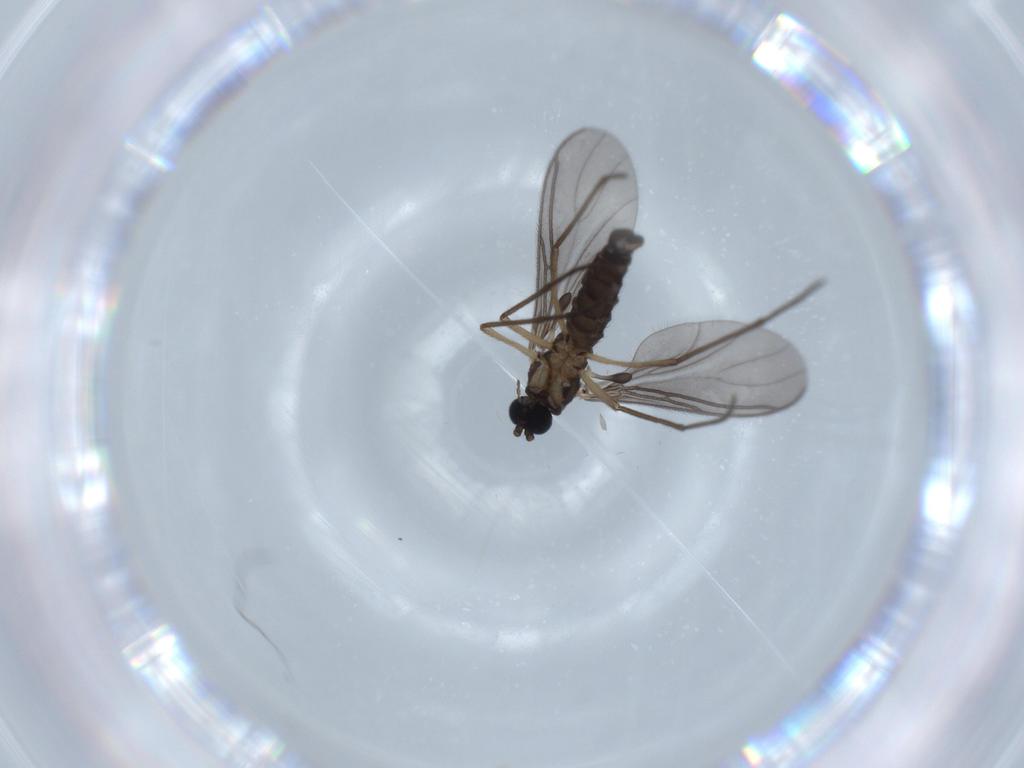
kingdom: Animalia
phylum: Arthropoda
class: Insecta
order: Diptera
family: Sciaridae
